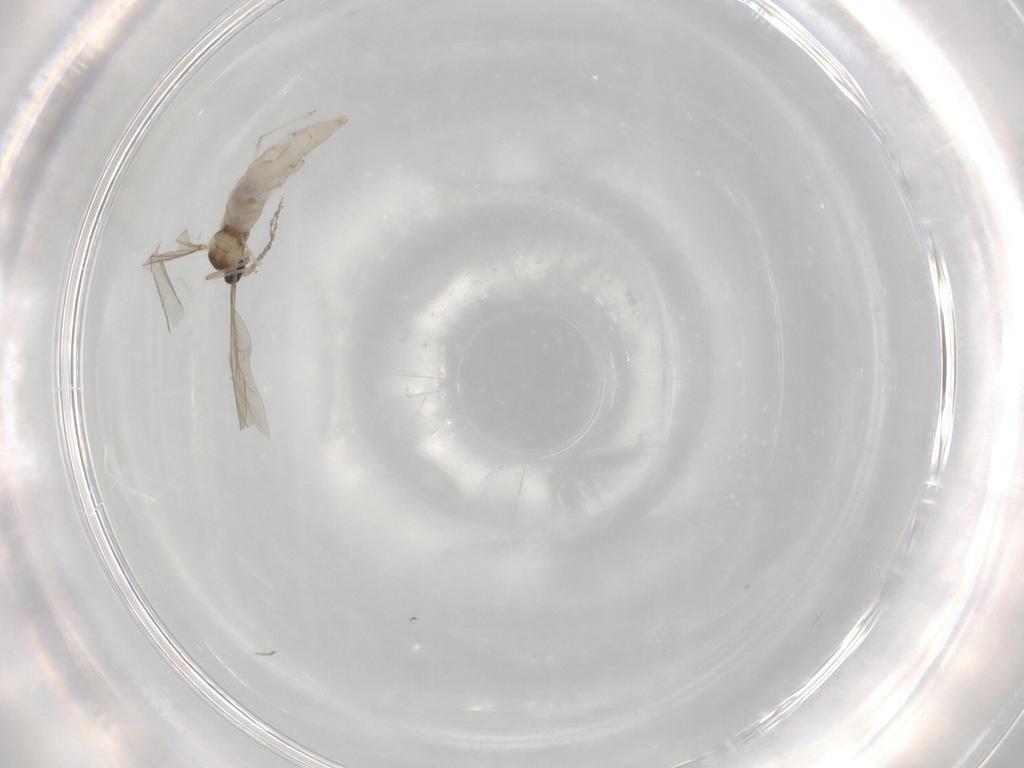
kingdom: Animalia
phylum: Arthropoda
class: Insecta
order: Diptera
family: Cecidomyiidae
